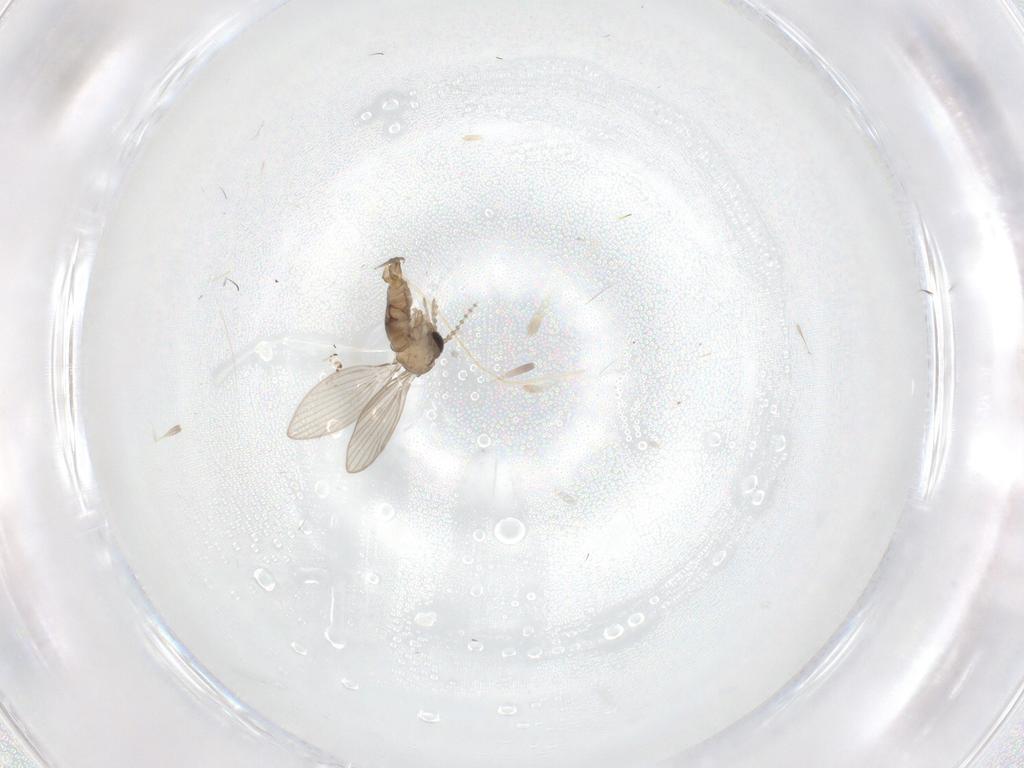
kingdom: Animalia
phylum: Arthropoda
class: Insecta
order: Diptera
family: Psychodidae
